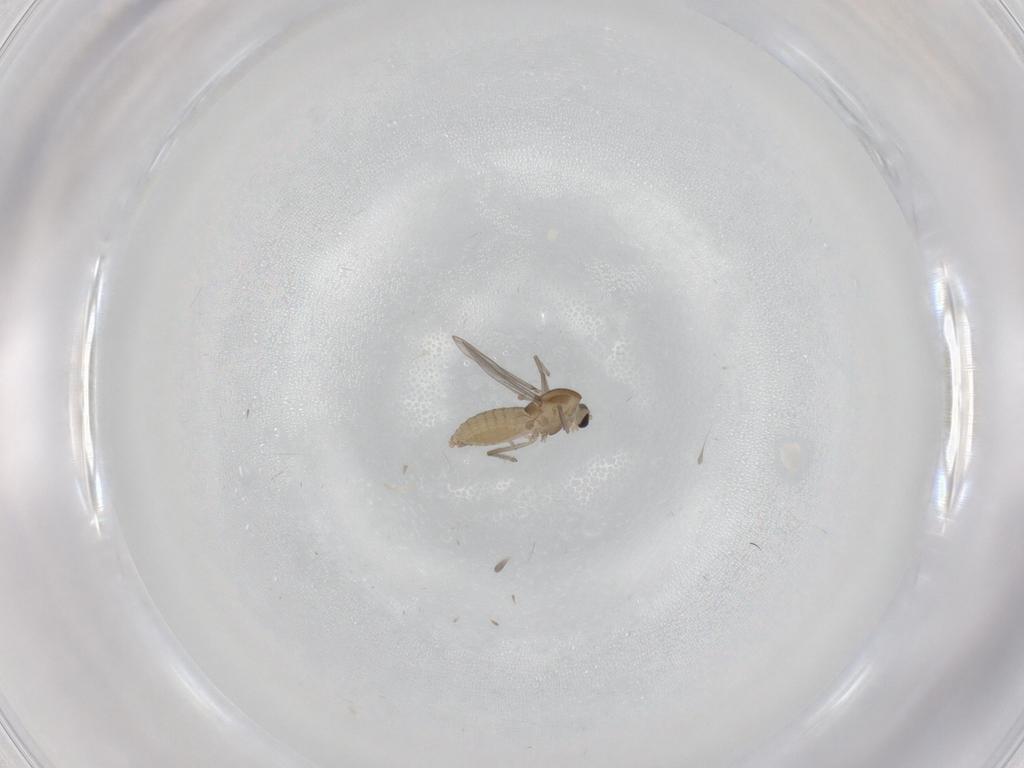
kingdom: Animalia
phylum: Arthropoda
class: Insecta
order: Diptera
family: Chironomidae
